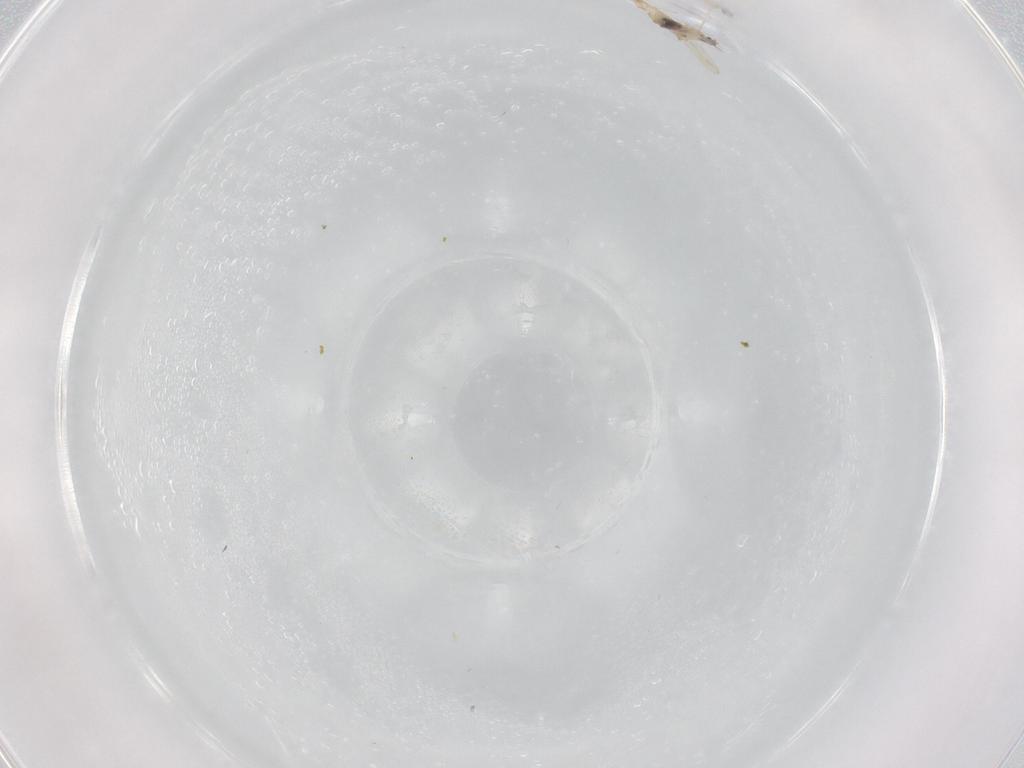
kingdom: Animalia
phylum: Arthropoda
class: Insecta
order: Diptera
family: Cecidomyiidae
